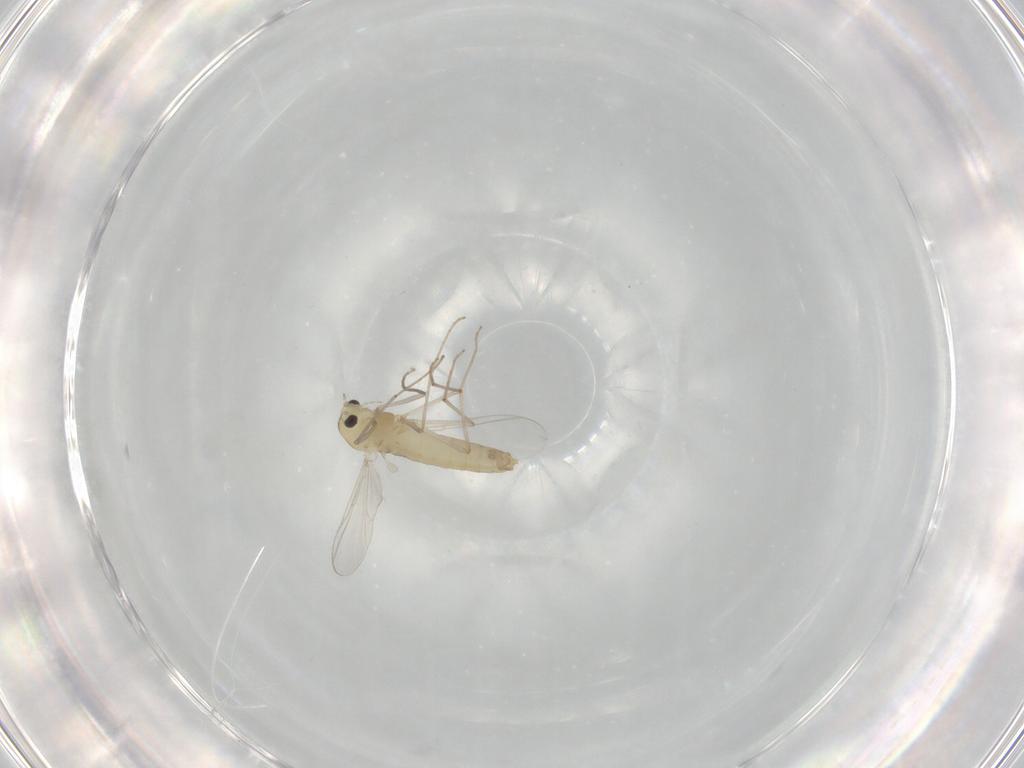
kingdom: Animalia
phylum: Arthropoda
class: Insecta
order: Diptera
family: Chironomidae
